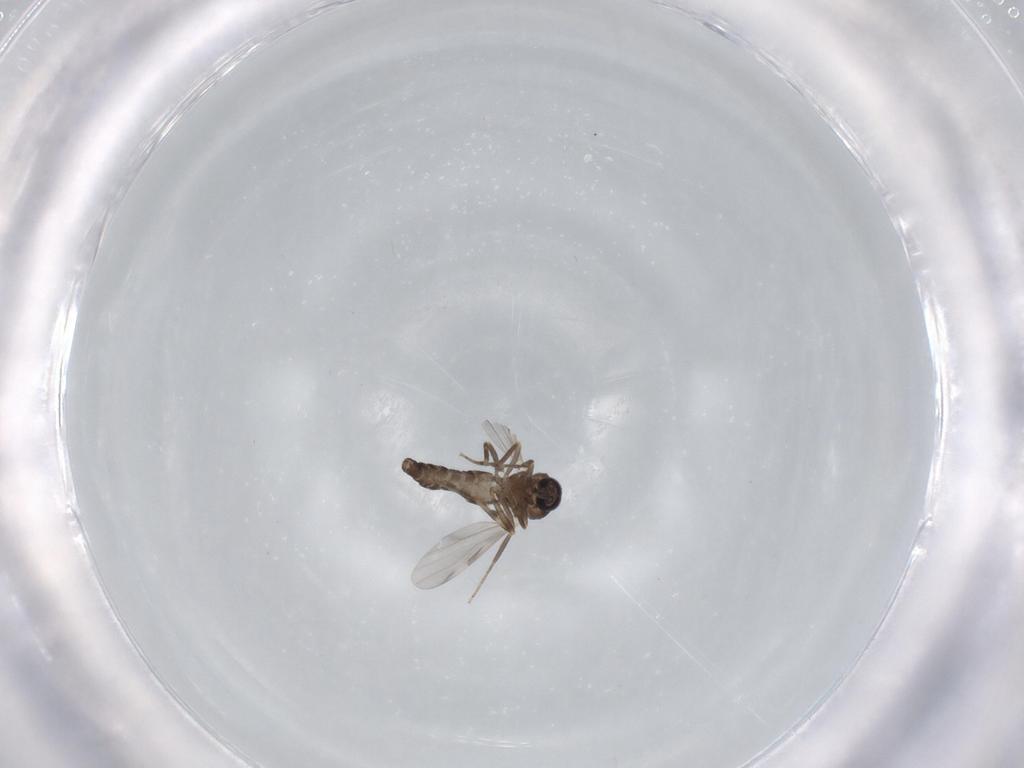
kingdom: Animalia
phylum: Arthropoda
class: Insecta
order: Diptera
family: Ceratopogonidae
